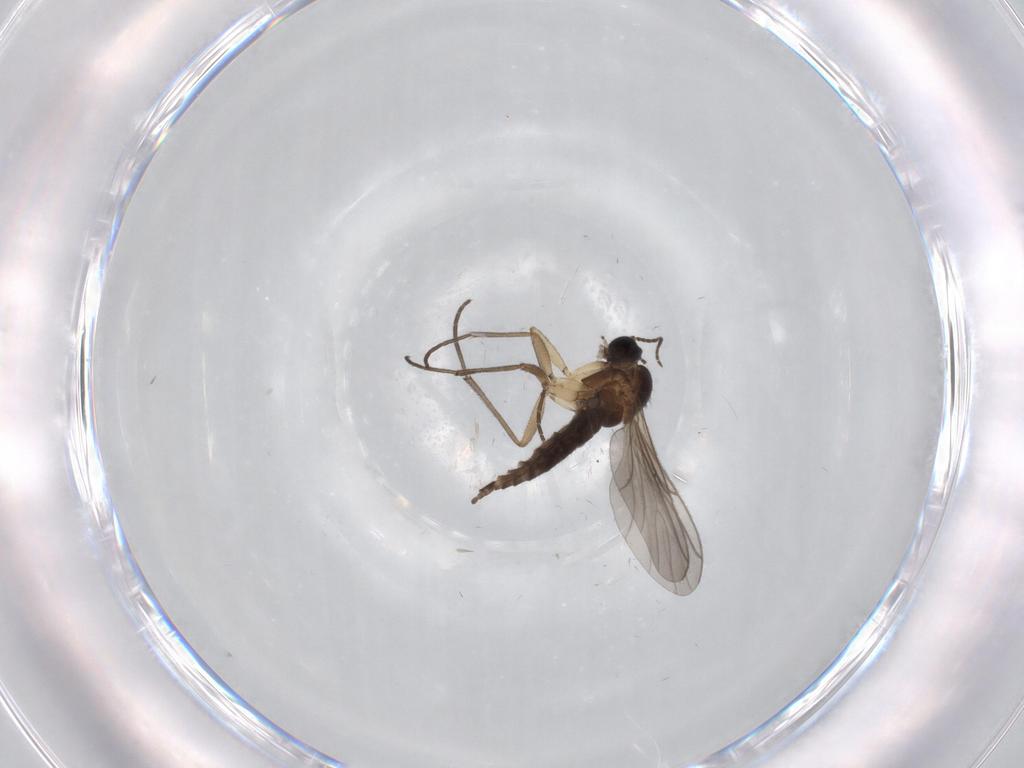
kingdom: Animalia
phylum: Arthropoda
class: Insecta
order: Diptera
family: Sciaridae
